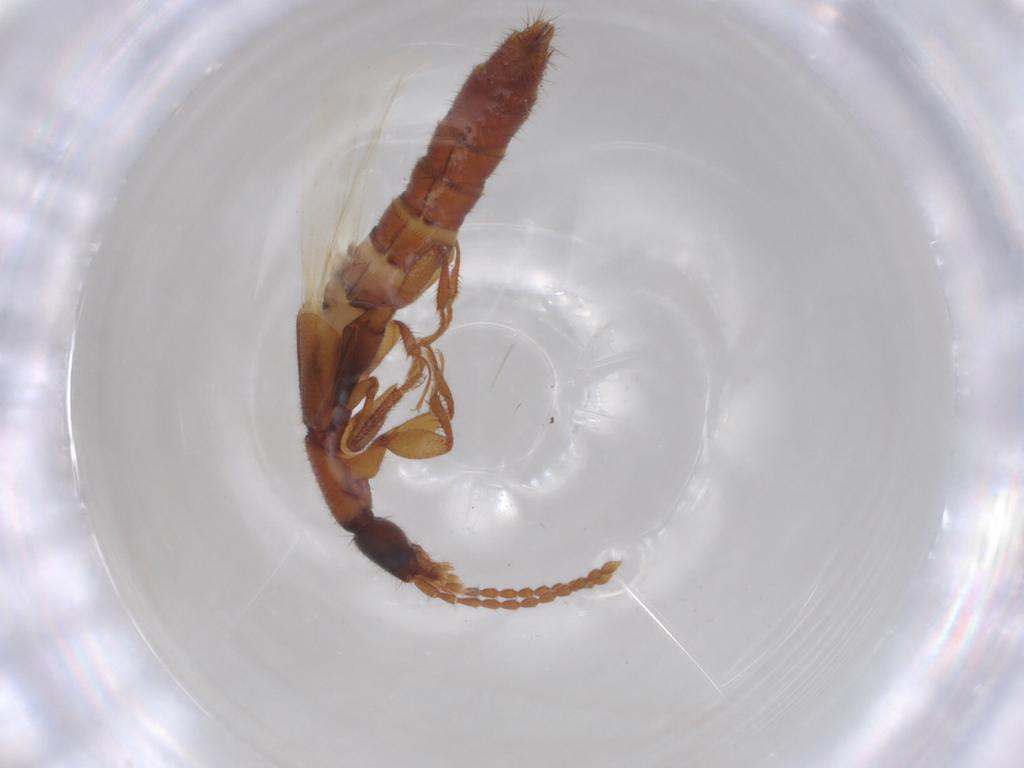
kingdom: Animalia
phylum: Arthropoda
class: Insecta
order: Coleoptera
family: Staphylinidae
